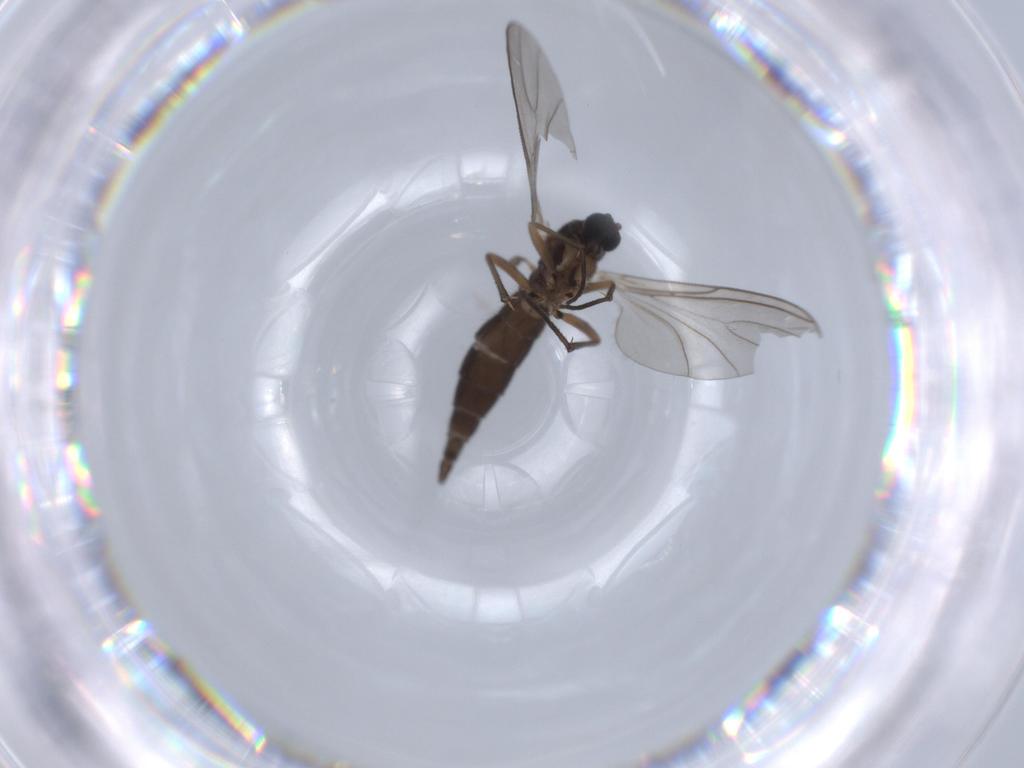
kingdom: Animalia
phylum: Arthropoda
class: Insecta
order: Diptera
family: Sciaridae
